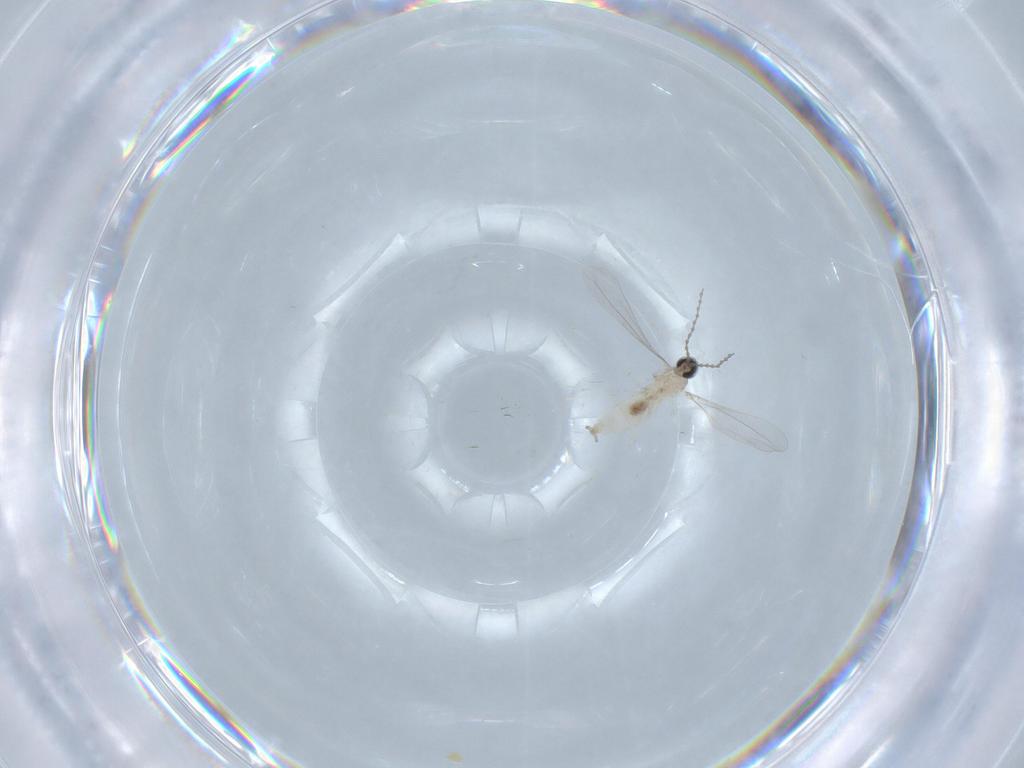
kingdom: Animalia
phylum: Arthropoda
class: Insecta
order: Diptera
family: Cecidomyiidae
